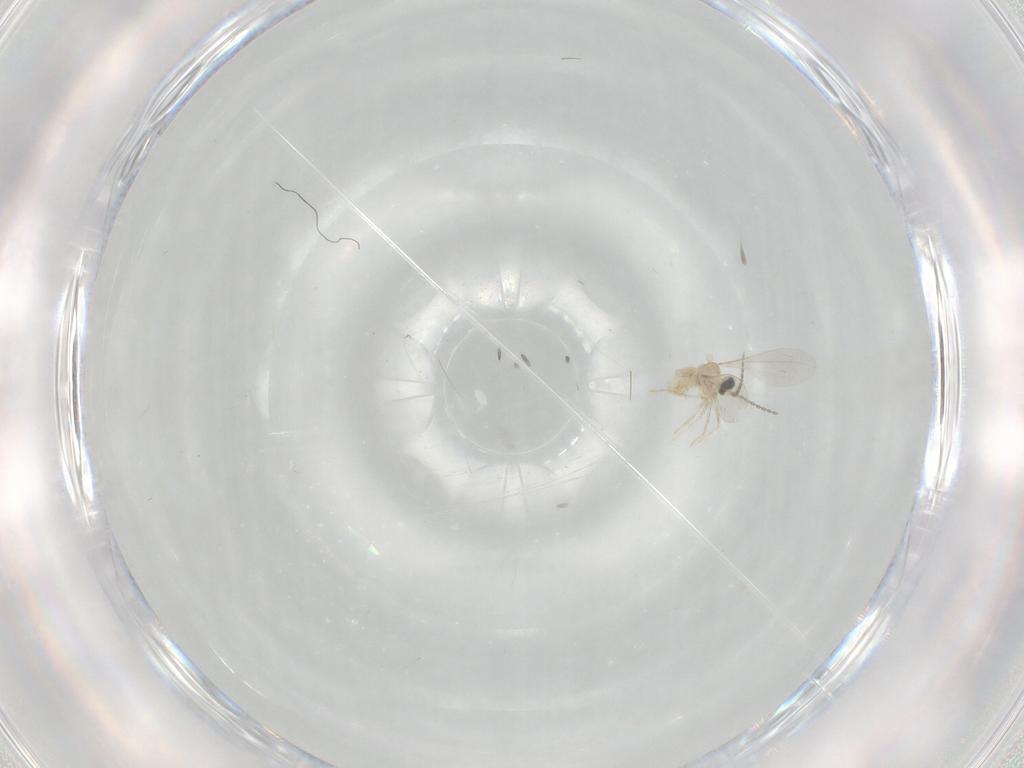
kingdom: Animalia
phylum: Arthropoda
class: Insecta
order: Diptera
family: Cecidomyiidae
